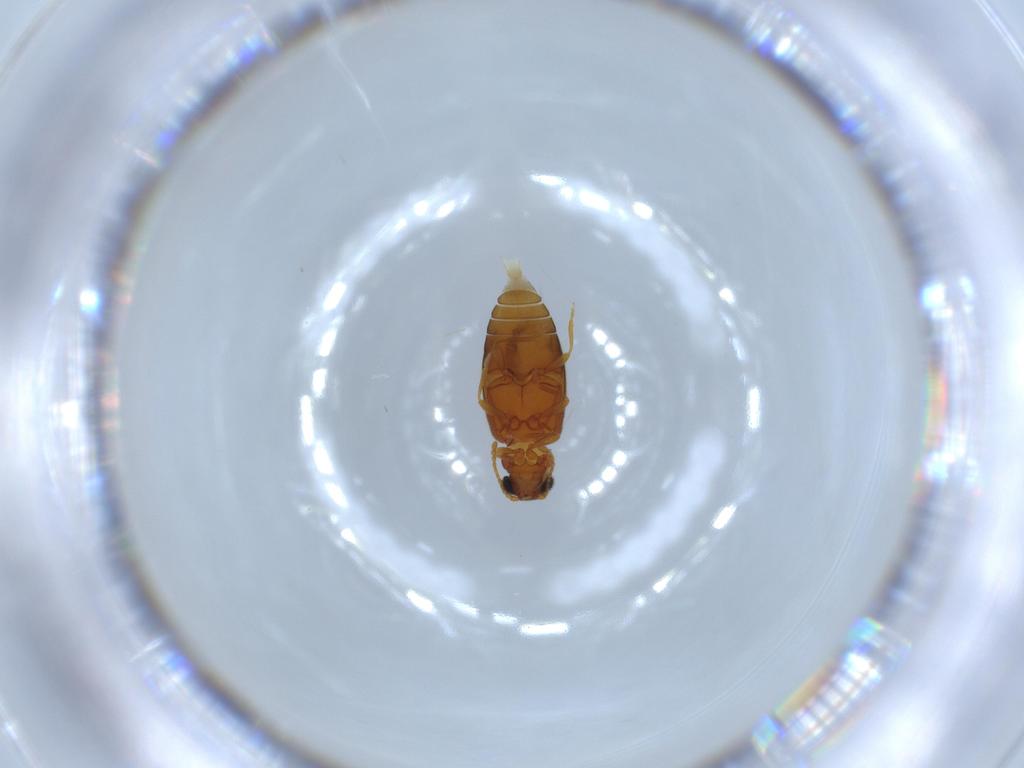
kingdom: Animalia
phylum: Arthropoda
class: Insecta
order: Coleoptera
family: Aderidae
